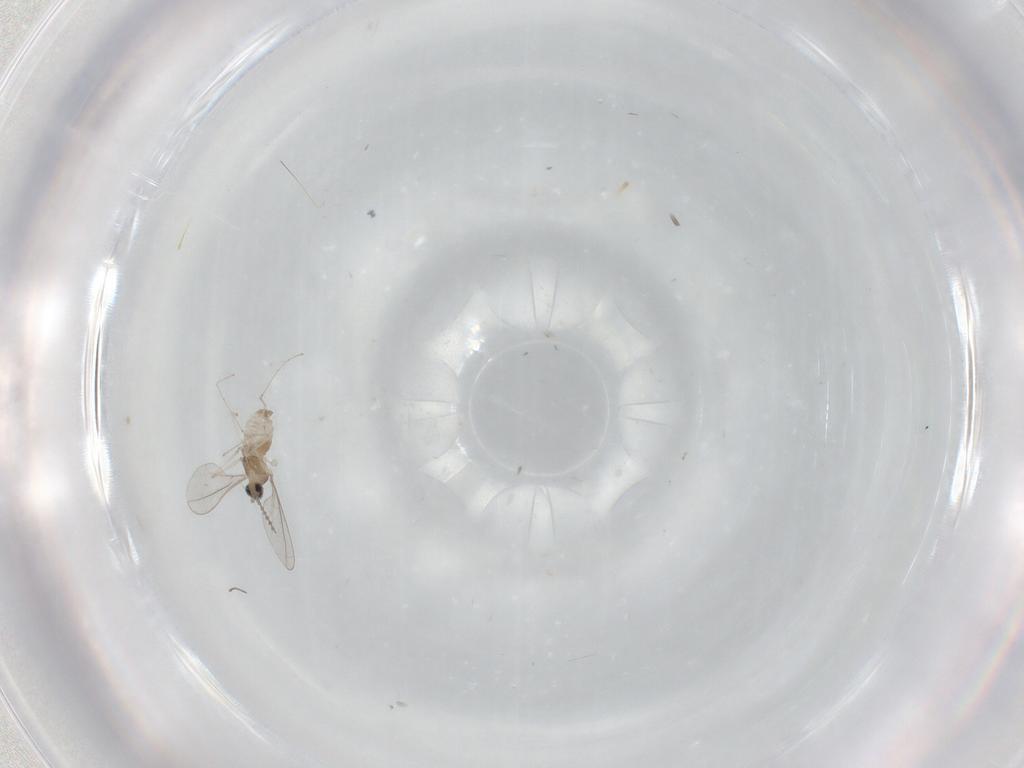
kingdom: Animalia
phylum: Arthropoda
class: Insecta
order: Diptera
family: Cecidomyiidae
